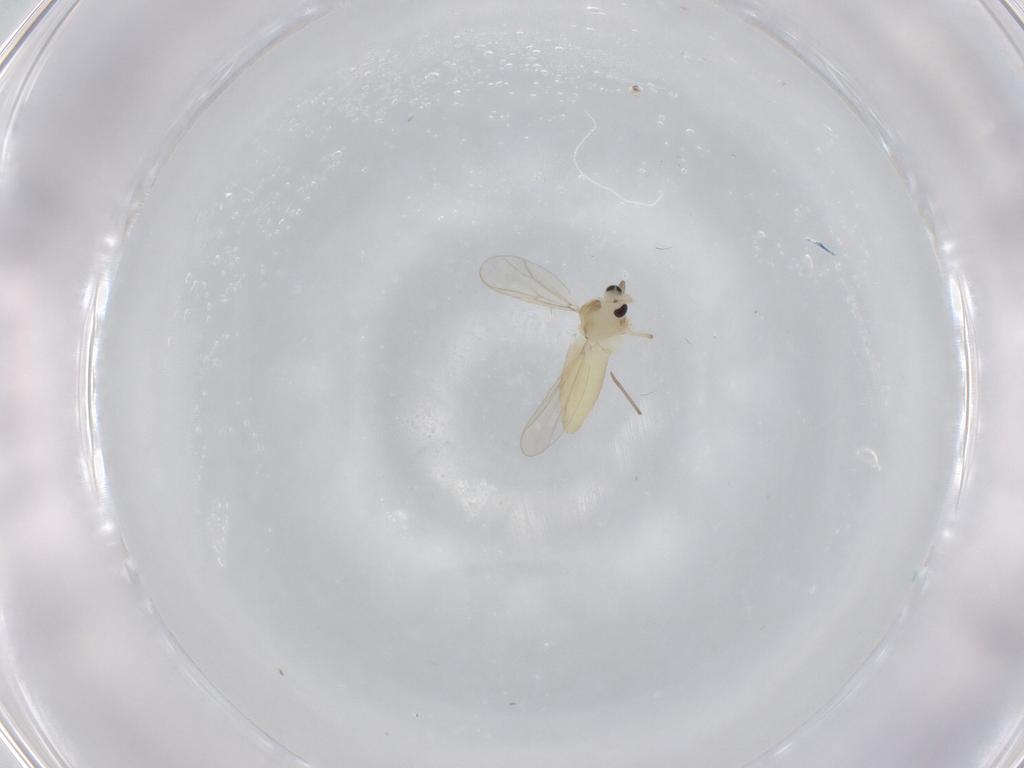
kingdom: Animalia
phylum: Arthropoda
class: Insecta
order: Diptera
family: Chironomidae
